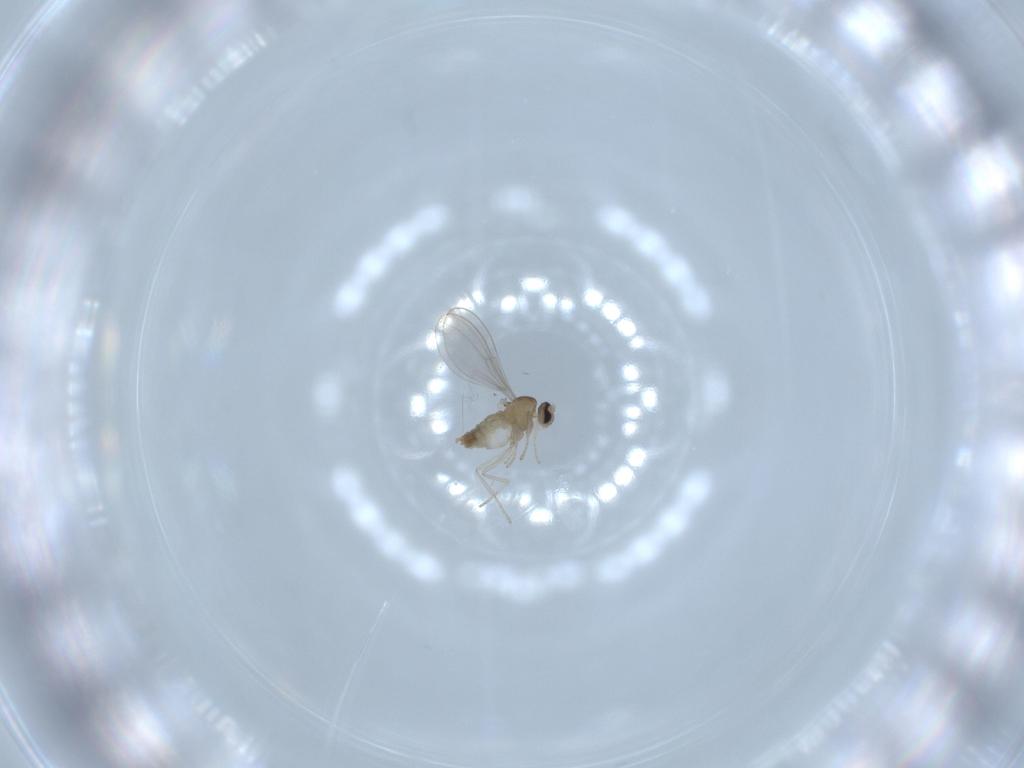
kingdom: Animalia
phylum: Arthropoda
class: Insecta
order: Diptera
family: Cecidomyiidae
